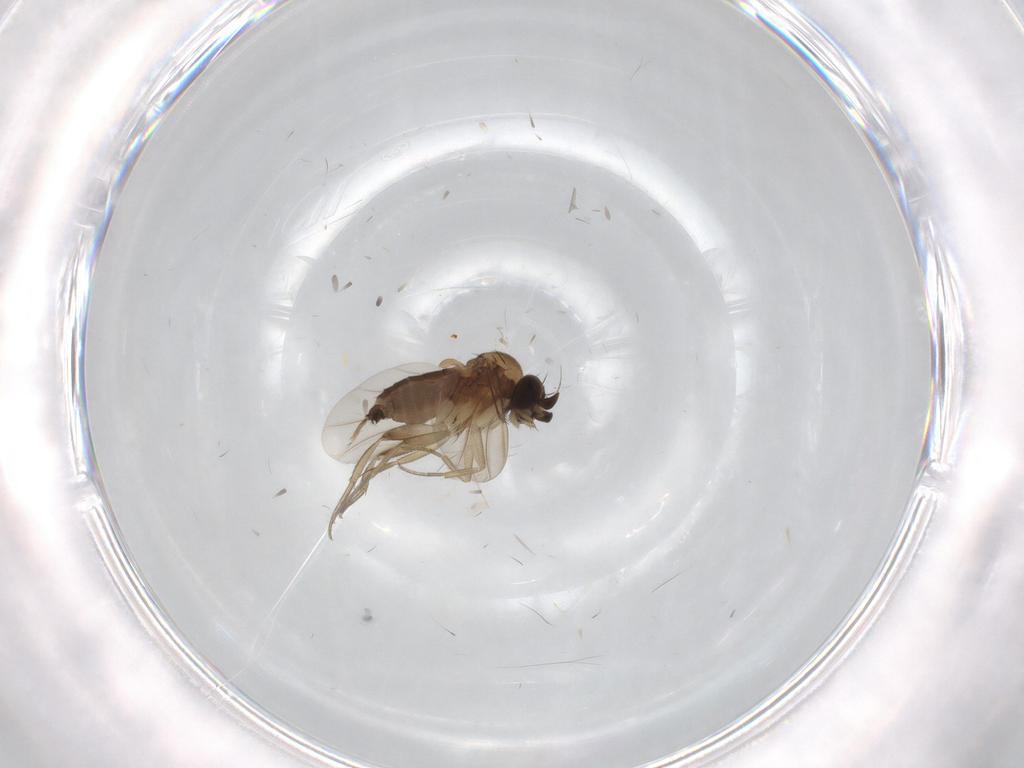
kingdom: Animalia
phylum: Arthropoda
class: Insecta
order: Diptera
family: Phoridae
